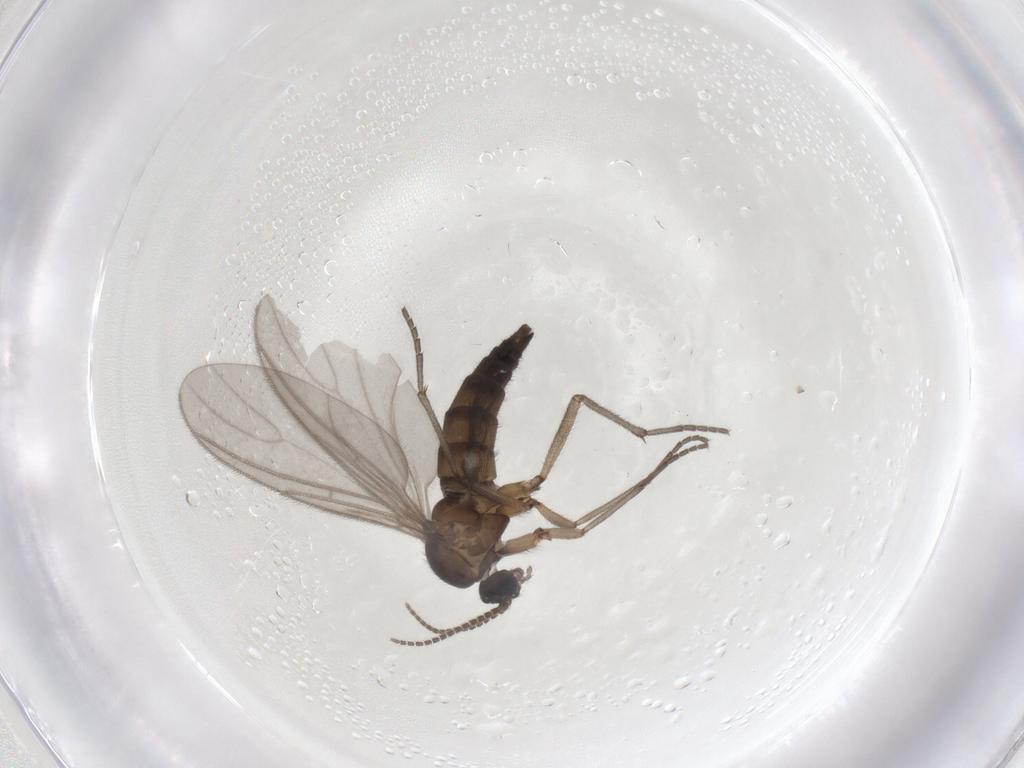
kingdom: Animalia
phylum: Arthropoda
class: Insecta
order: Diptera
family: Sciaridae
